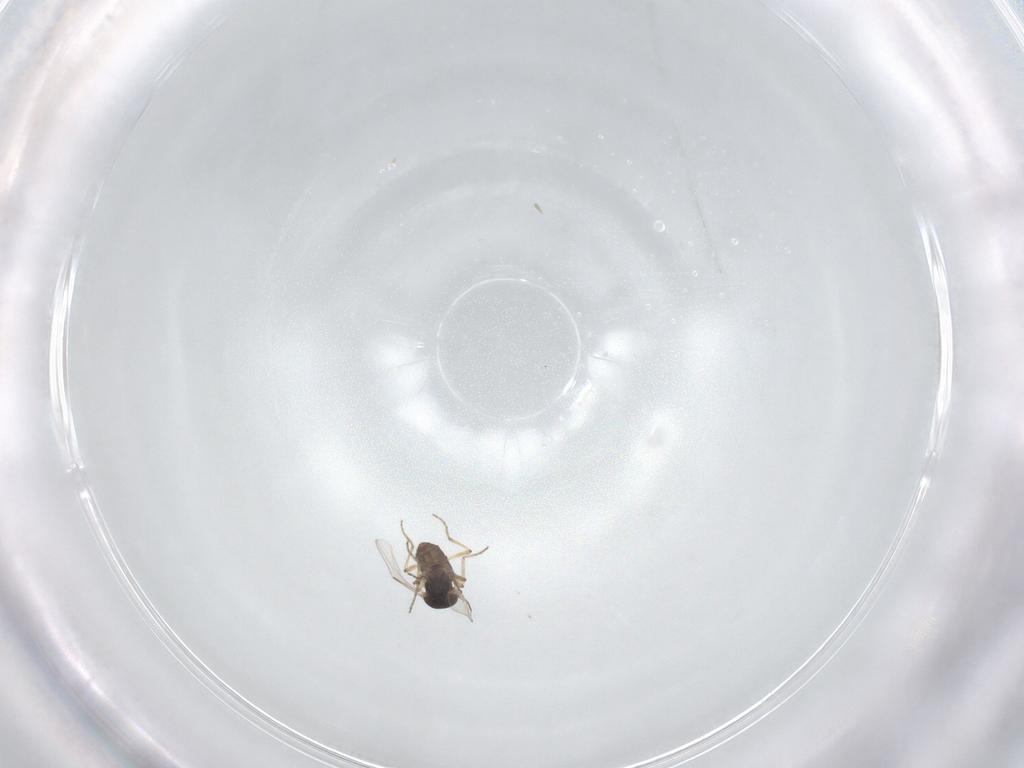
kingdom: Animalia
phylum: Arthropoda
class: Insecta
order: Diptera
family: Ceratopogonidae
